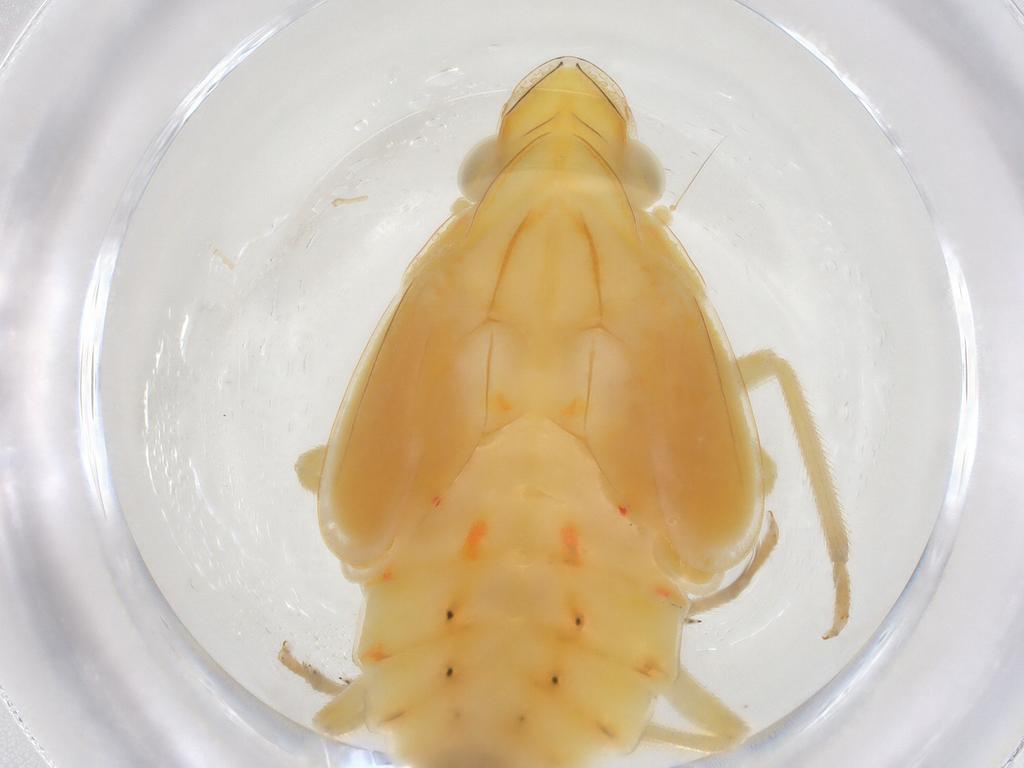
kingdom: Animalia
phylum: Arthropoda
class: Insecta
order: Hemiptera
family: Tropiduchidae
